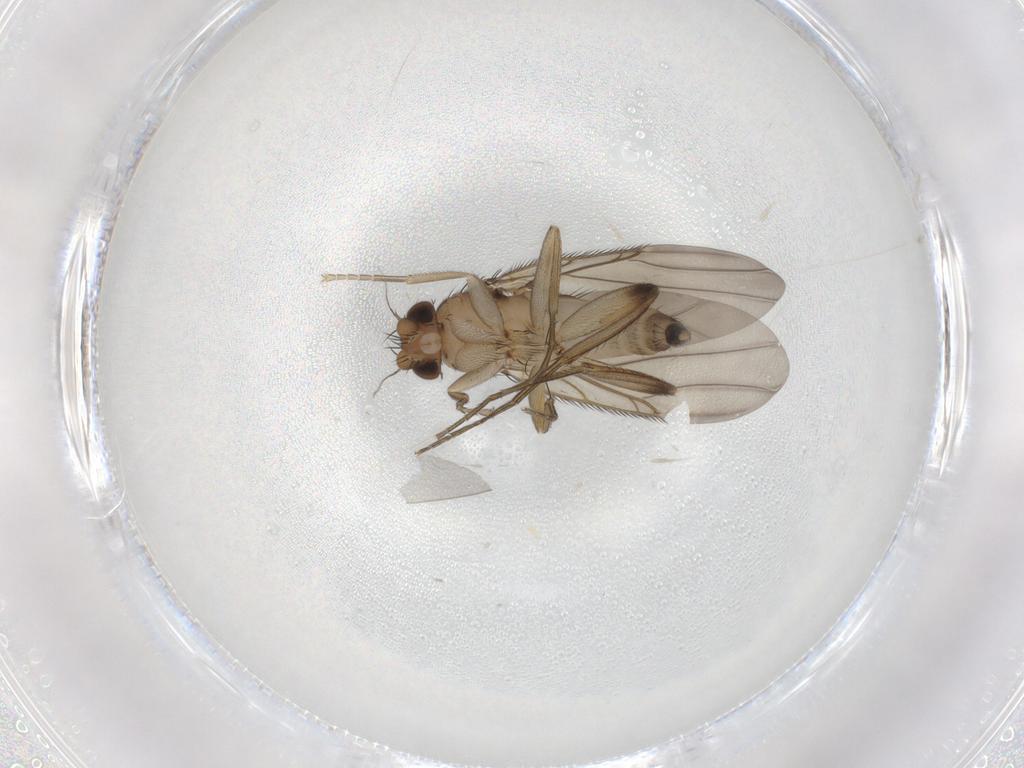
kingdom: Animalia
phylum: Arthropoda
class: Insecta
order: Diptera
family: Phoridae
